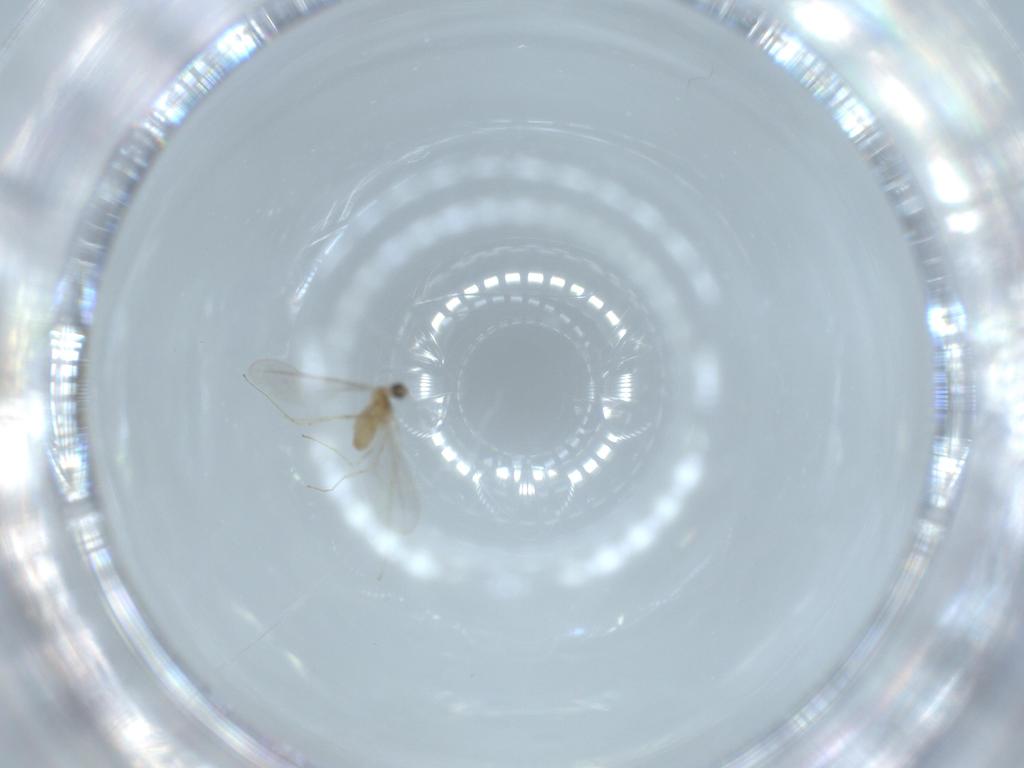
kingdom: Animalia
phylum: Arthropoda
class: Insecta
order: Diptera
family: Cecidomyiidae
